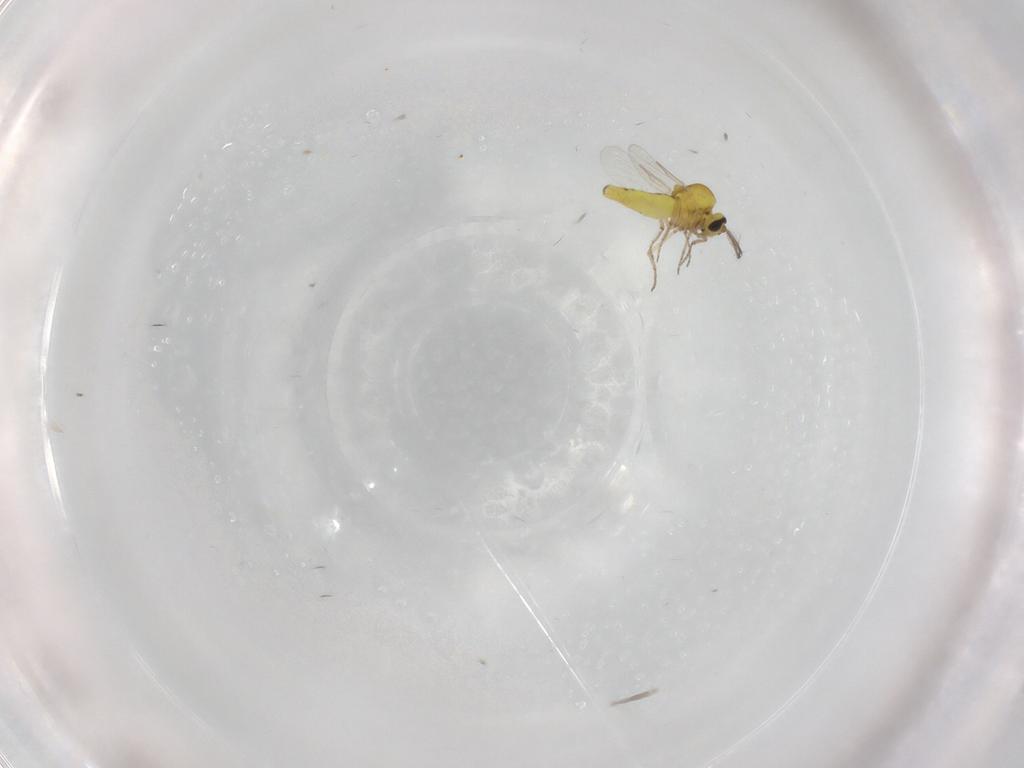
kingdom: Animalia
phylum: Arthropoda
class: Insecta
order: Diptera
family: Ceratopogonidae
